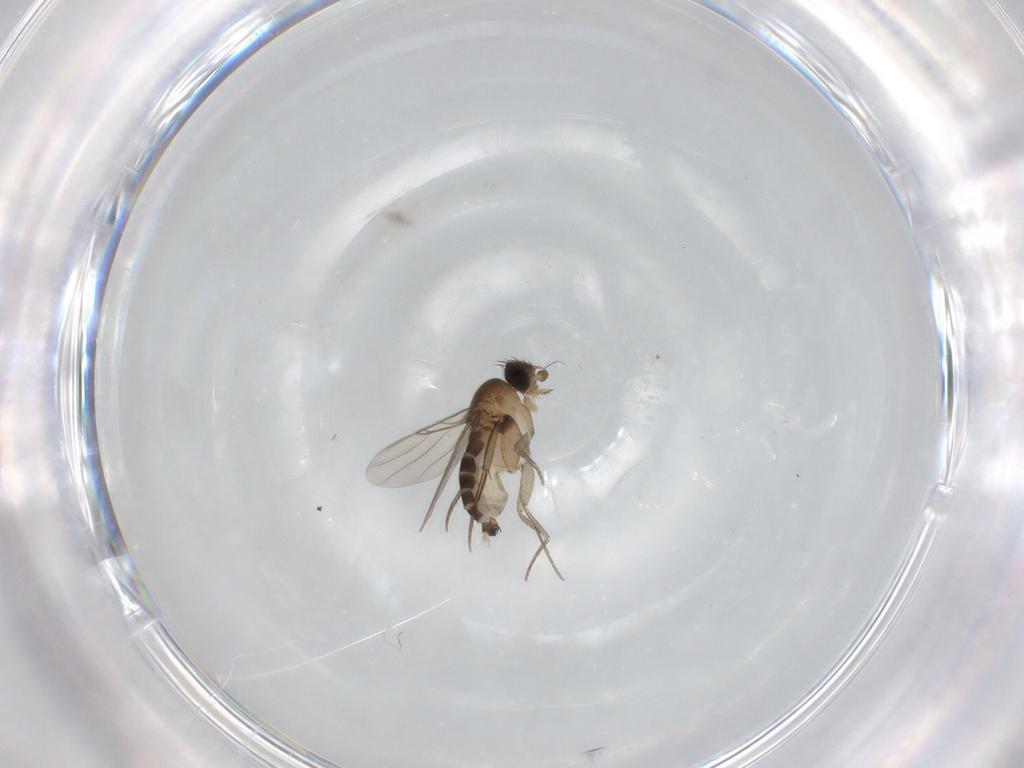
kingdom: Animalia
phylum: Arthropoda
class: Insecta
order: Diptera
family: Phoridae
